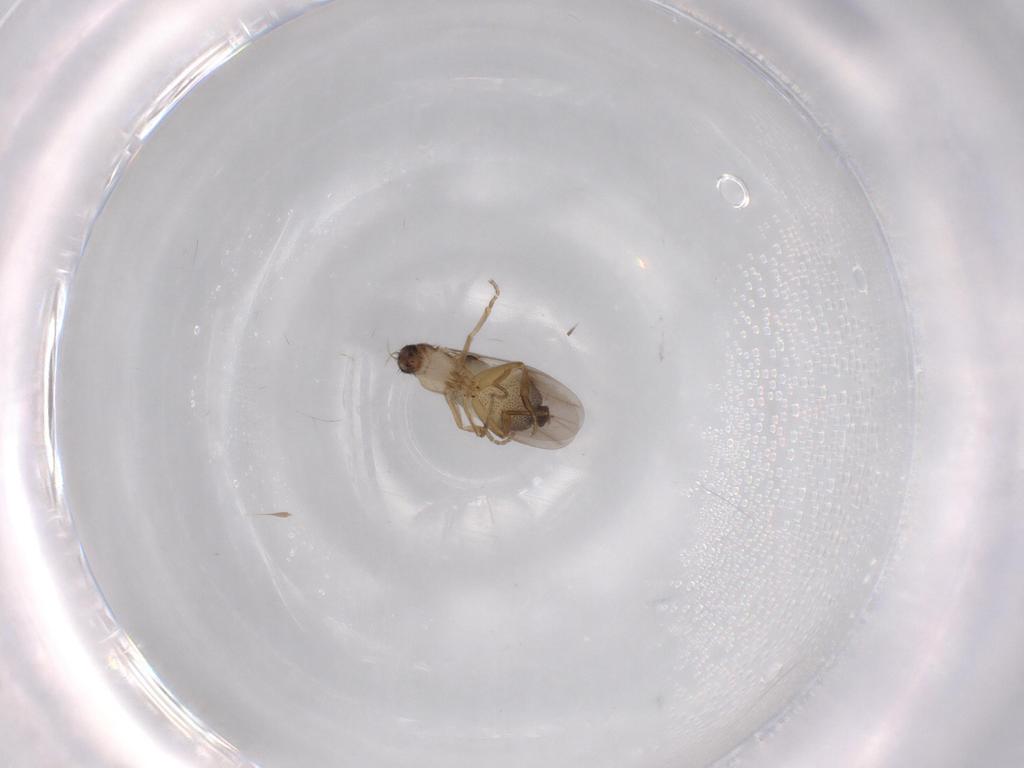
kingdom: Animalia
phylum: Arthropoda
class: Insecta
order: Diptera
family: Phoridae
